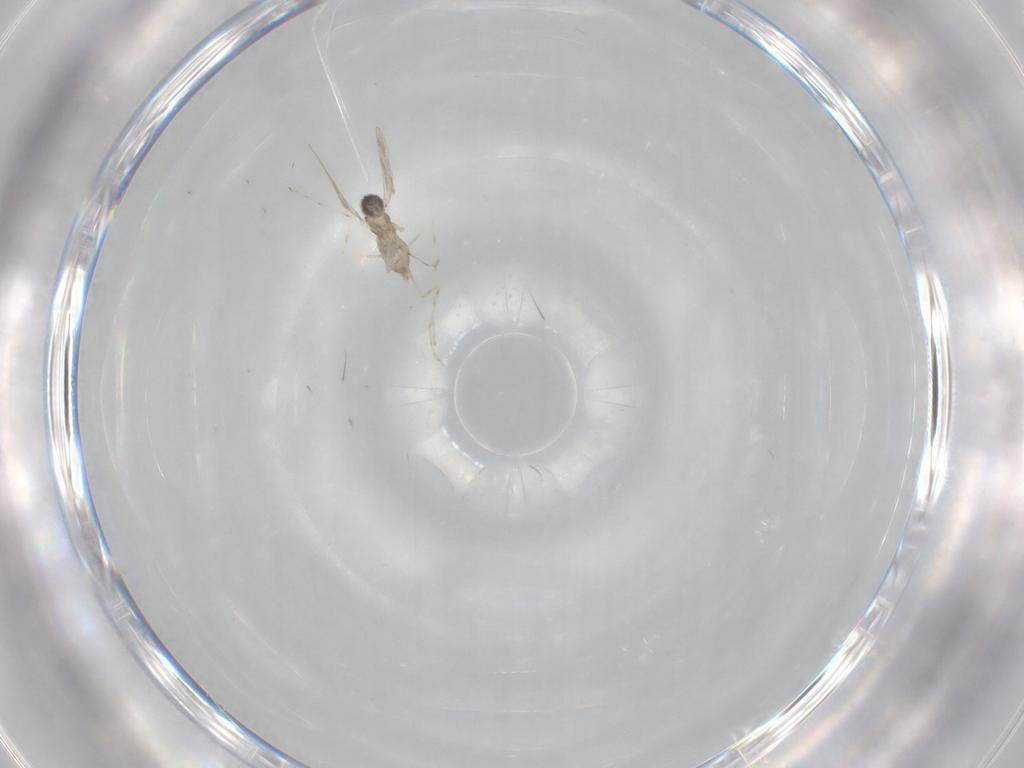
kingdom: Animalia
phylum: Arthropoda
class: Insecta
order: Diptera
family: Cecidomyiidae
